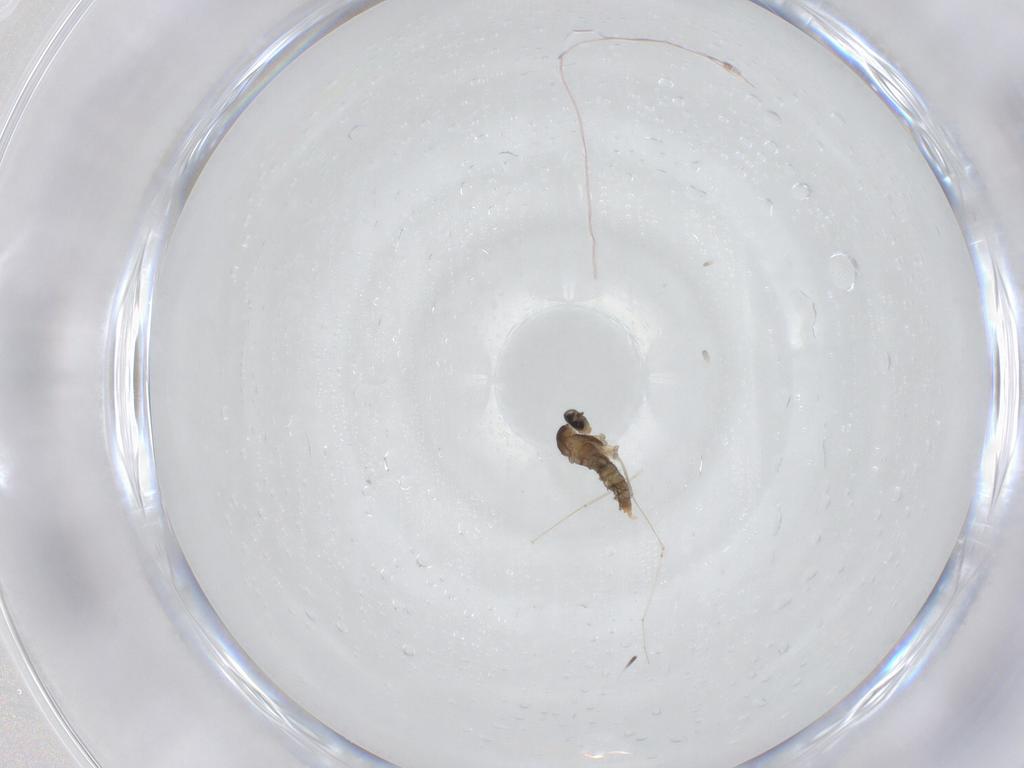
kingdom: Animalia
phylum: Arthropoda
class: Insecta
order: Diptera
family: Cecidomyiidae
